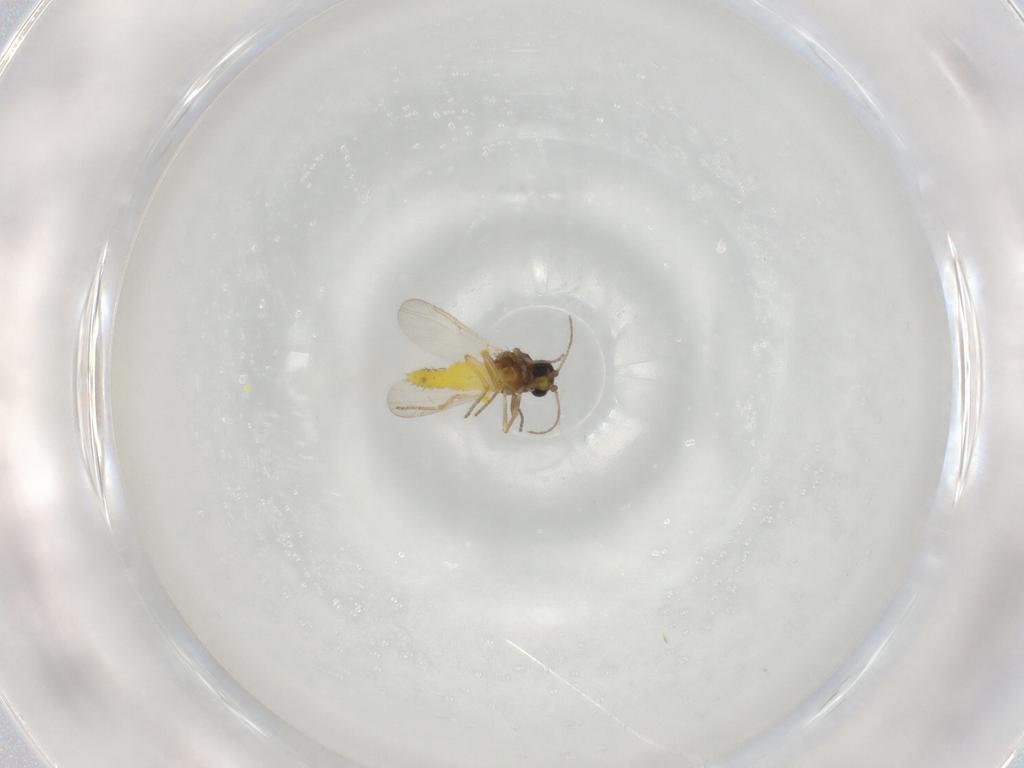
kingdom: Animalia
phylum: Arthropoda
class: Insecta
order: Diptera
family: Ceratopogonidae
